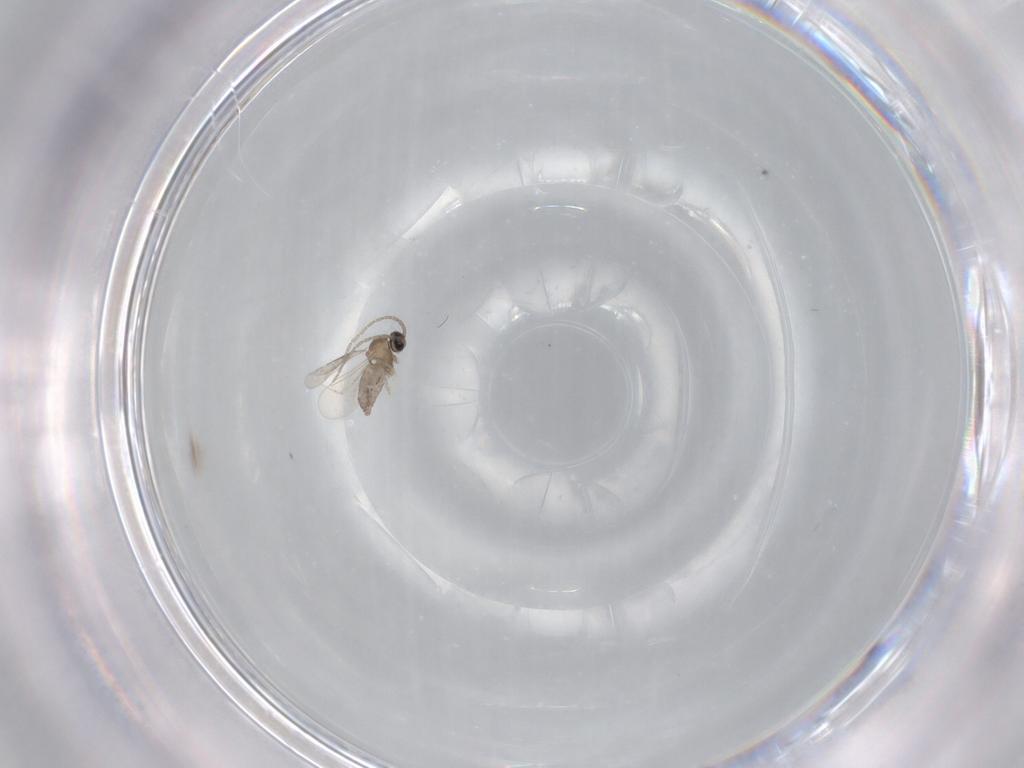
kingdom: Animalia
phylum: Arthropoda
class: Insecta
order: Diptera
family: Cecidomyiidae
